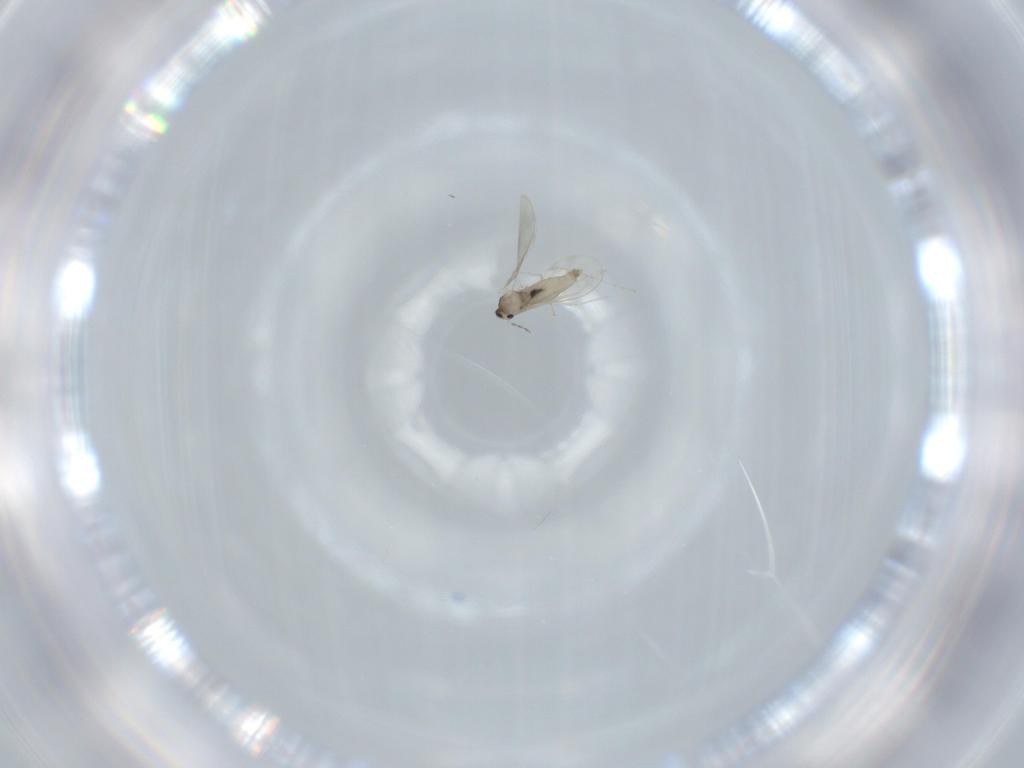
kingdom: Animalia
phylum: Arthropoda
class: Insecta
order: Diptera
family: Cecidomyiidae
